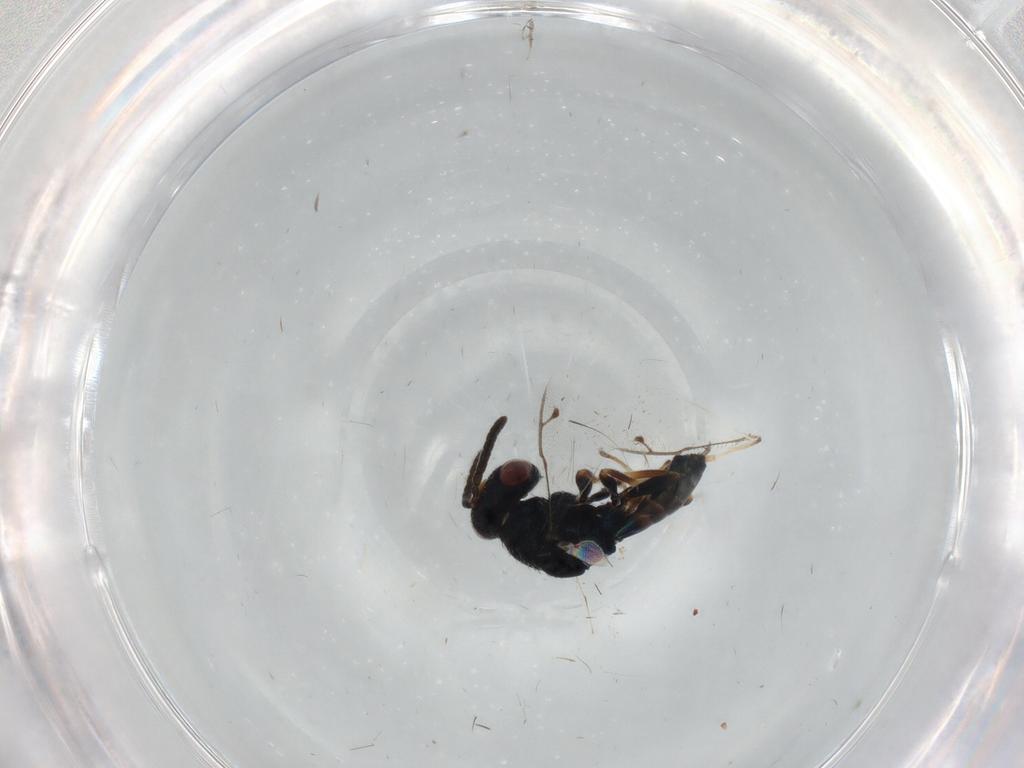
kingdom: Animalia
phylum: Arthropoda
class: Insecta
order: Hymenoptera
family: Pteromalidae
